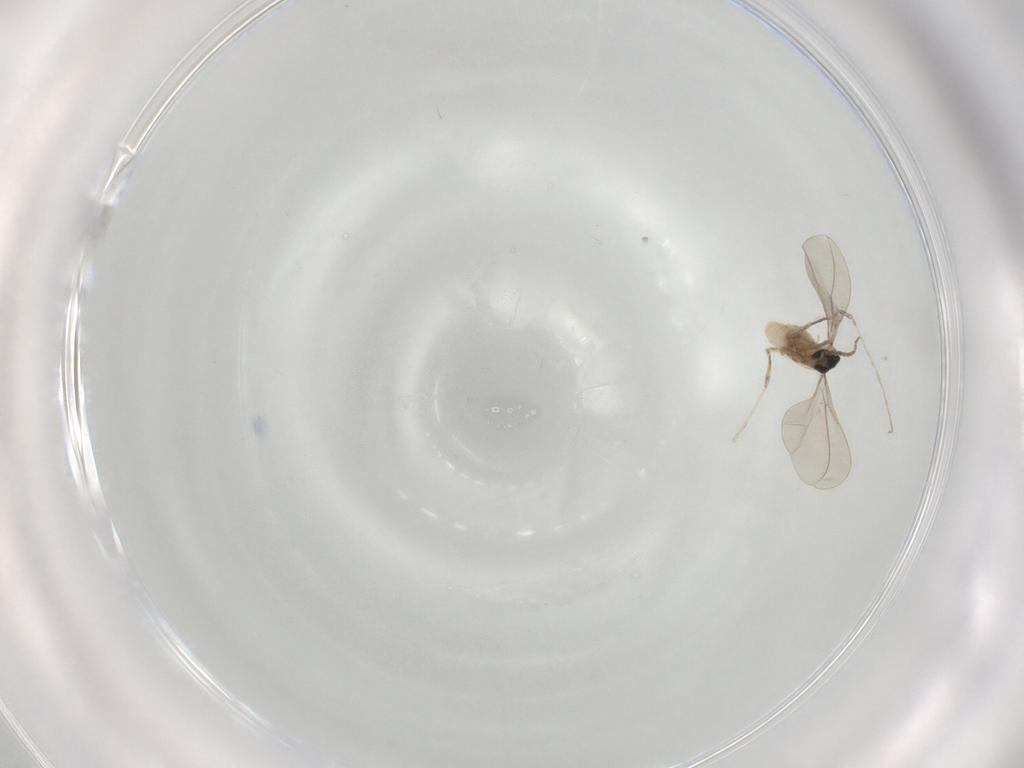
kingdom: Animalia
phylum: Arthropoda
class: Insecta
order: Diptera
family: Cecidomyiidae
